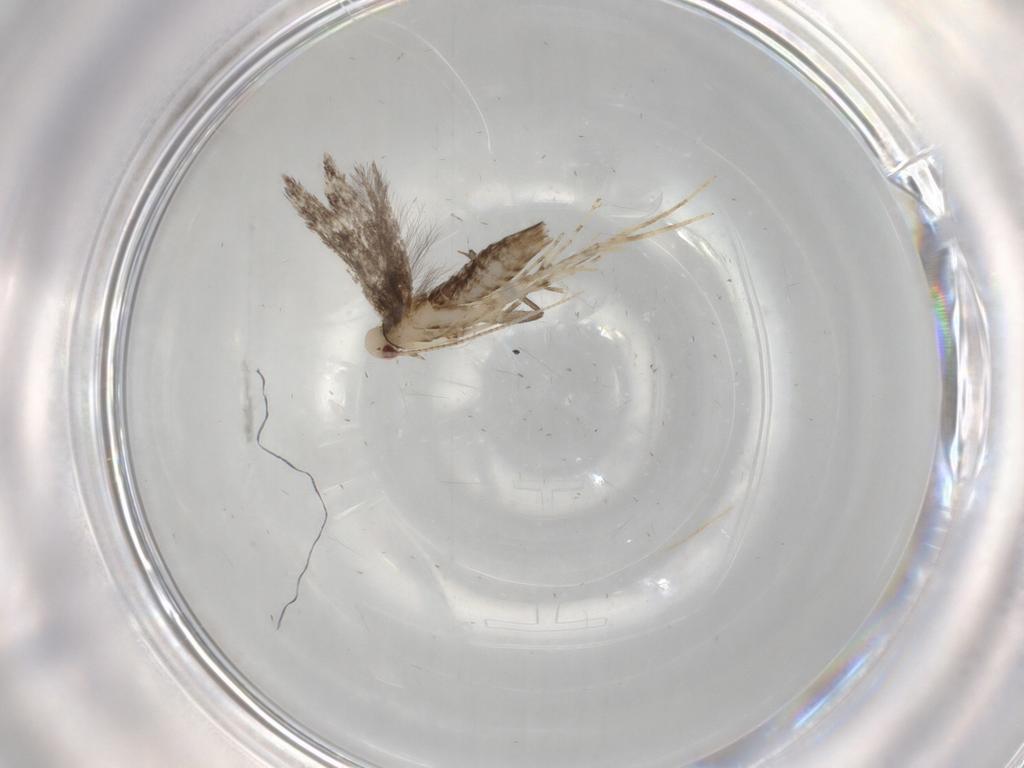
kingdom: Animalia
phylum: Arthropoda
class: Insecta
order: Lepidoptera
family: Gracillariidae
